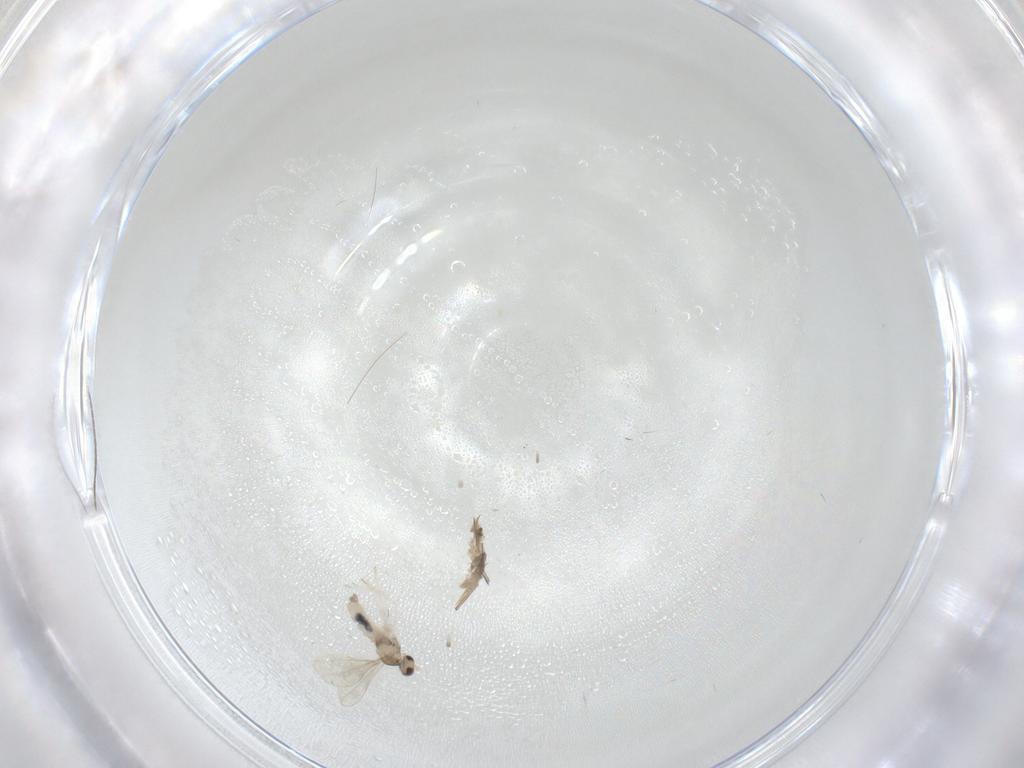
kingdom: Animalia
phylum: Arthropoda
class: Insecta
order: Diptera
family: Cecidomyiidae
